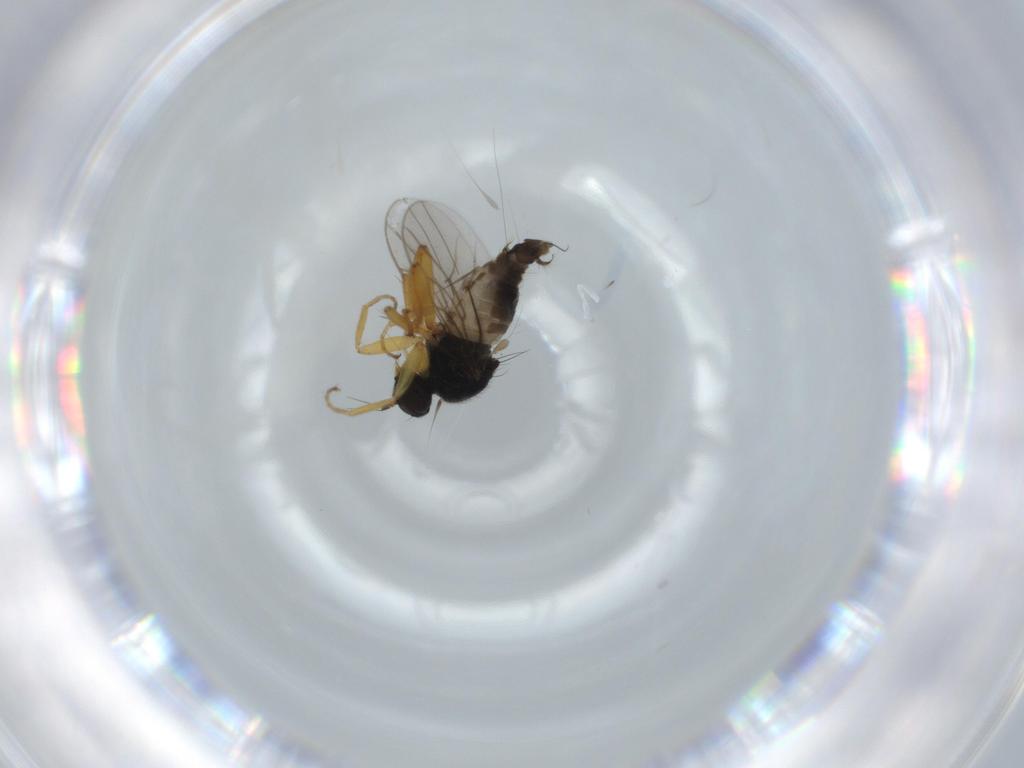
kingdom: Animalia
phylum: Arthropoda
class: Insecta
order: Diptera
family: Hybotidae
